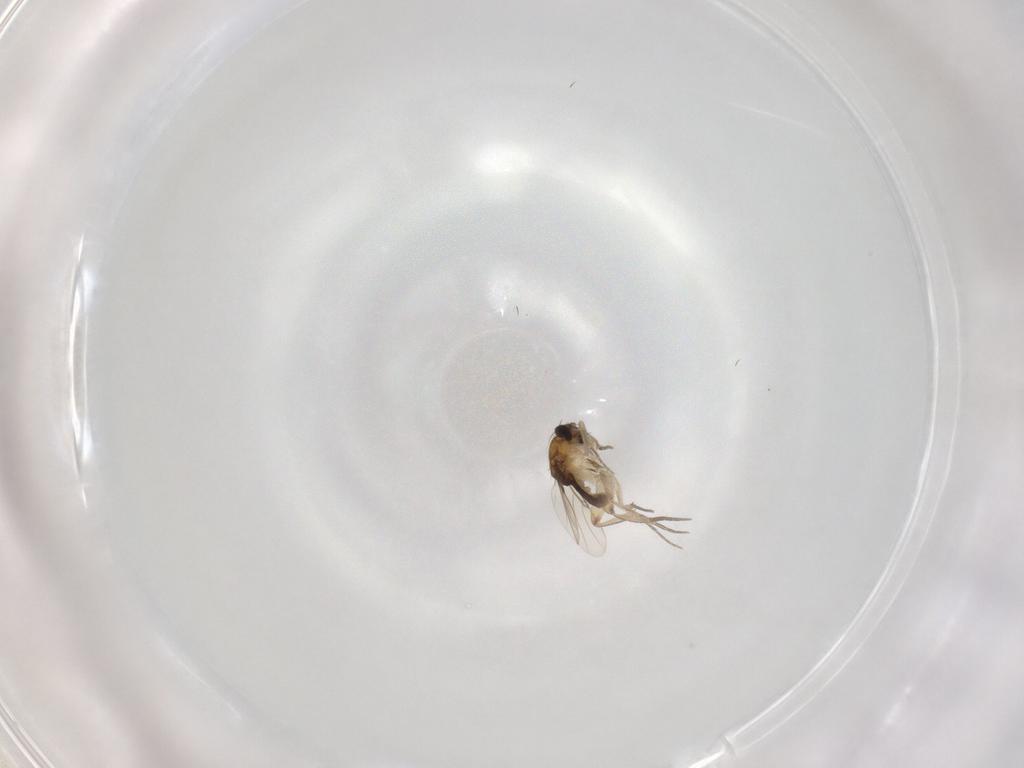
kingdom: Animalia
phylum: Arthropoda
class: Insecta
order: Diptera
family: Phoridae
